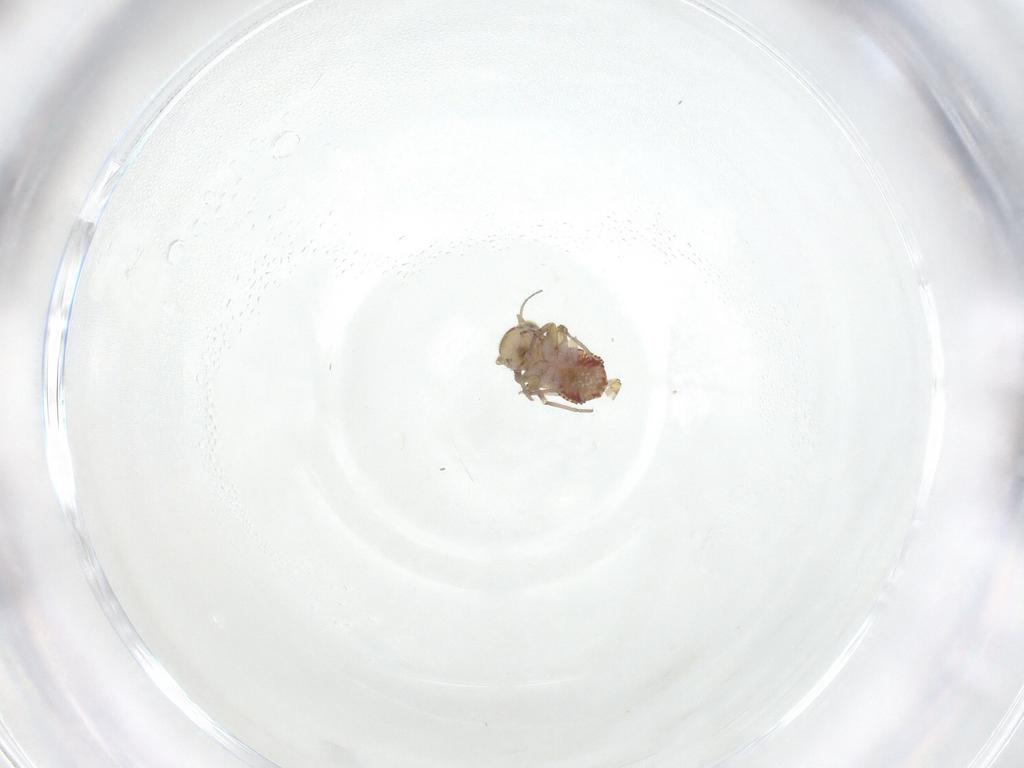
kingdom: Animalia
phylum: Arthropoda
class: Insecta
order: Psocodea
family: Philotarsidae
